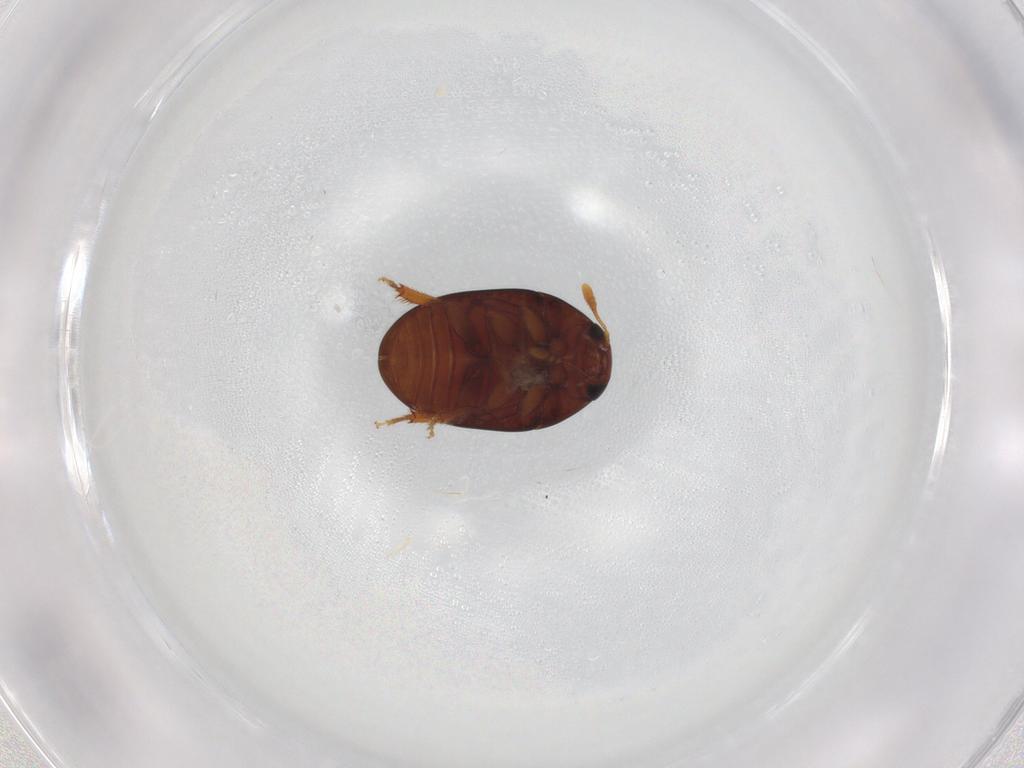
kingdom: Animalia
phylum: Arthropoda
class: Insecta
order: Coleoptera
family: Phalacridae
